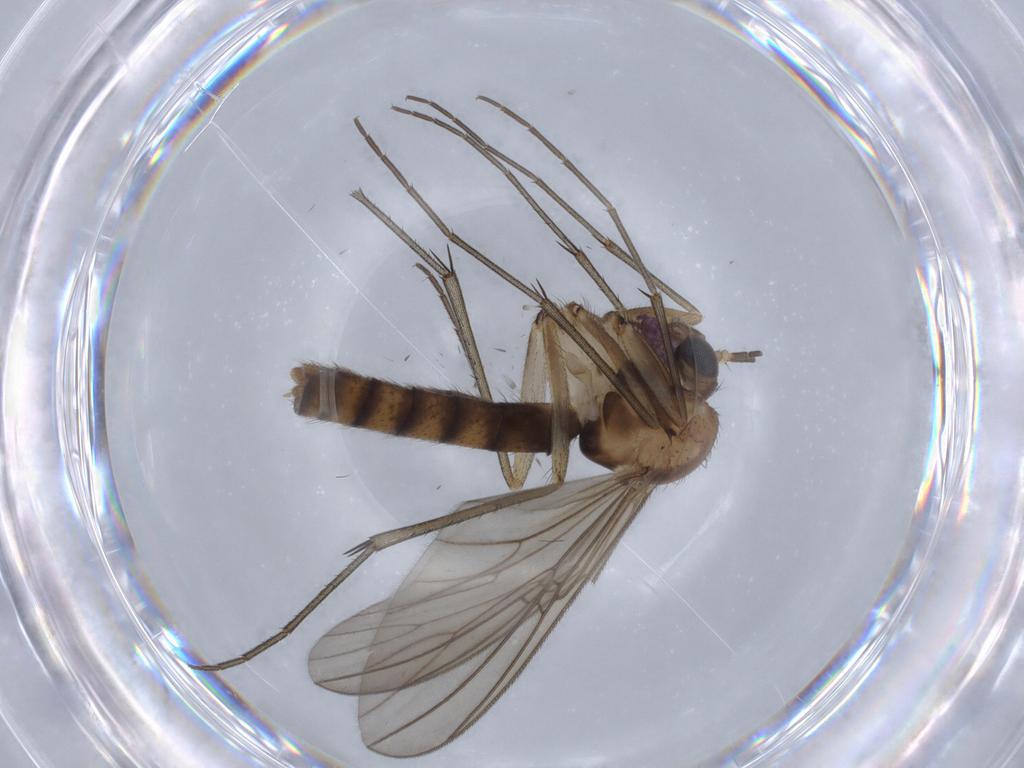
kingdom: Animalia
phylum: Arthropoda
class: Insecta
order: Diptera
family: Mycetophilidae
